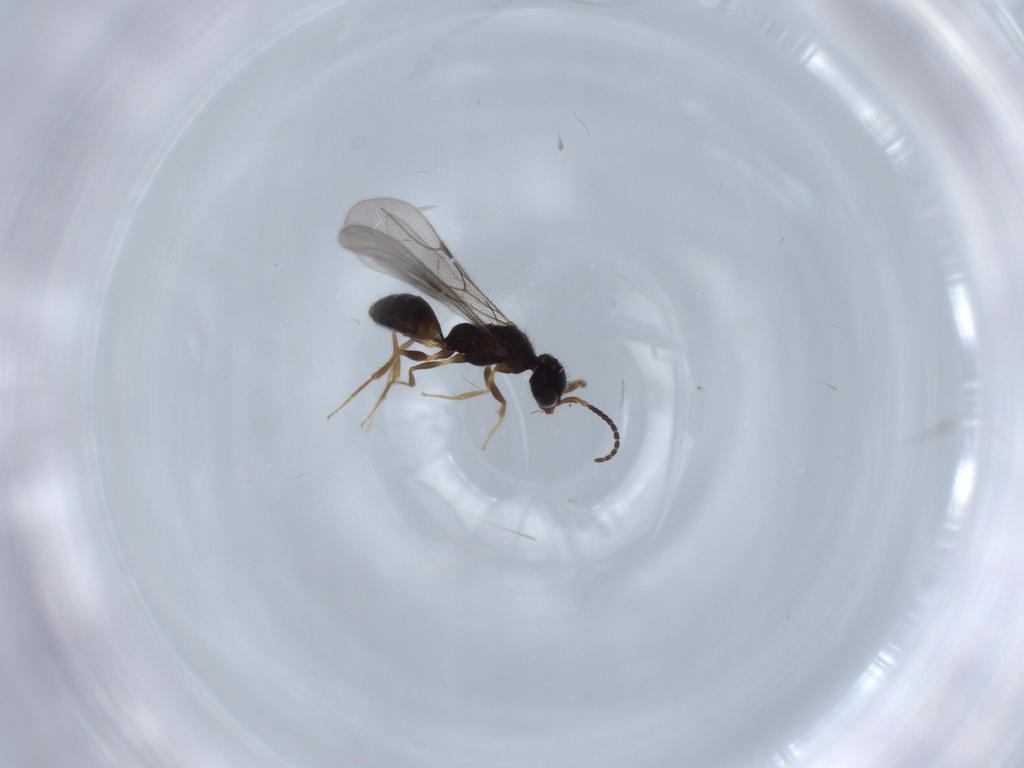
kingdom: Animalia
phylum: Arthropoda
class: Insecta
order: Hymenoptera
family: Bethylidae
